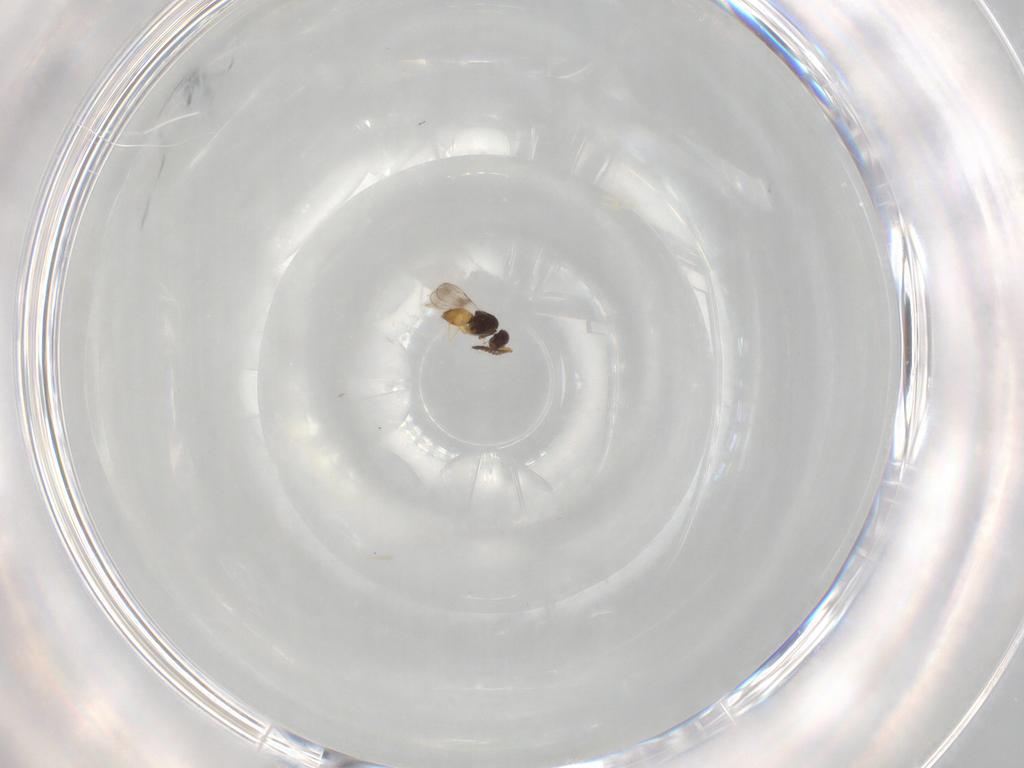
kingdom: Animalia
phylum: Arthropoda
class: Insecta
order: Hymenoptera
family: Vespidae
